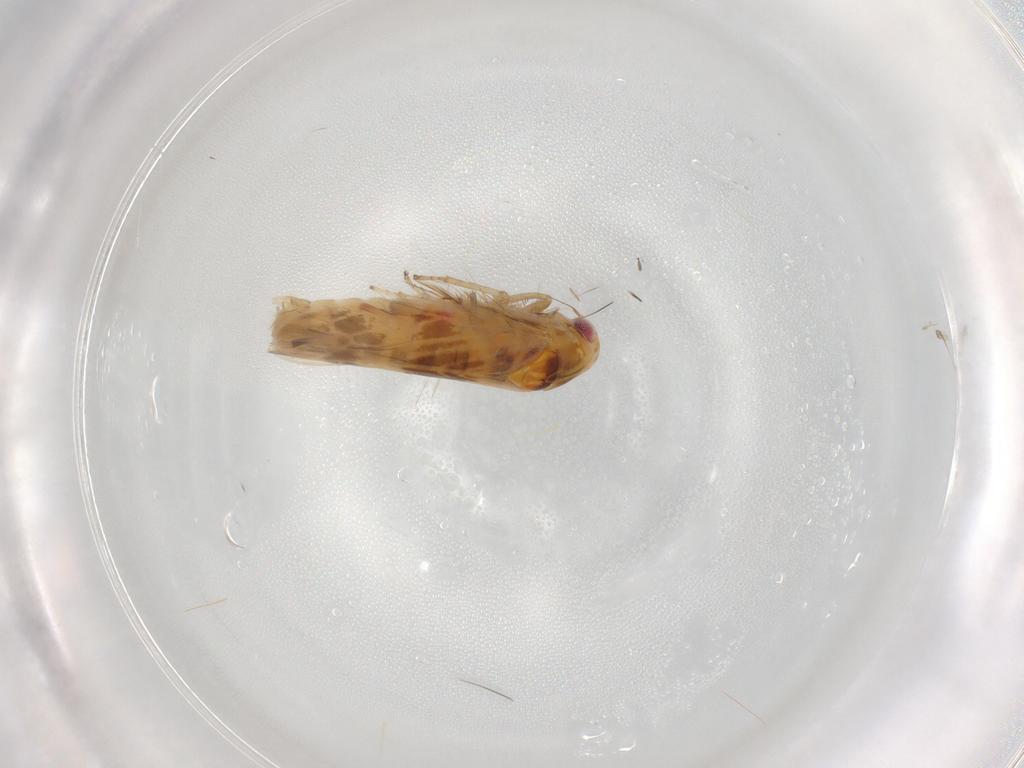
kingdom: Animalia
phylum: Arthropoda
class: Insecta
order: Hemiptera
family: Cicadellidae
